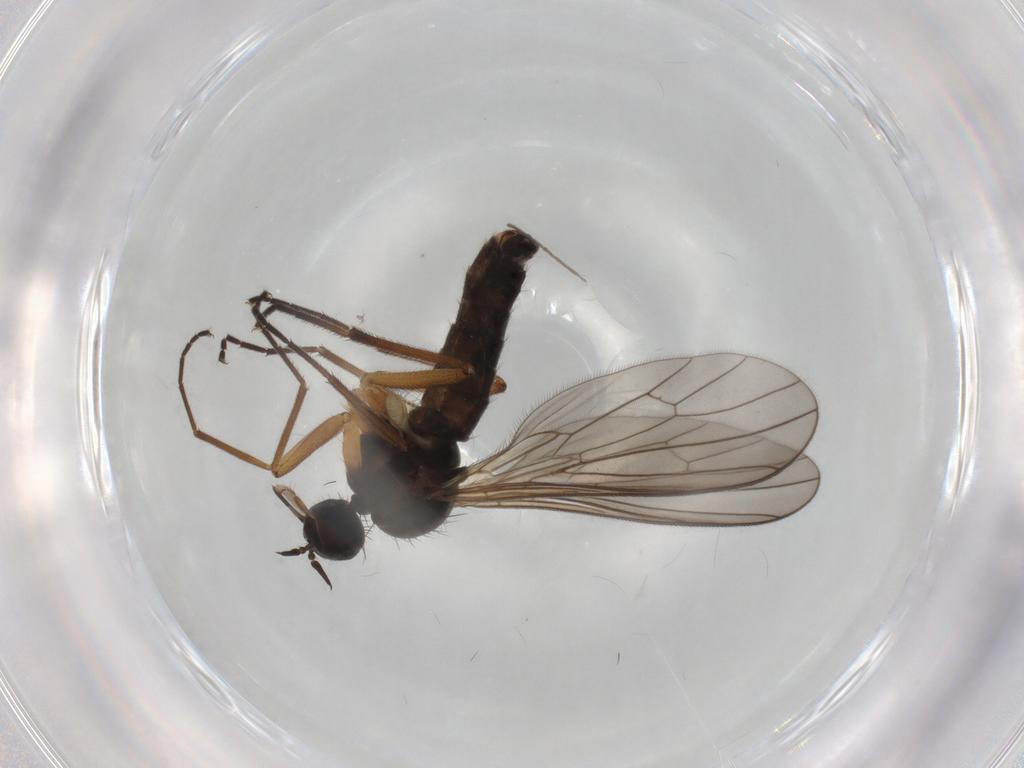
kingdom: Animalia
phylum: Arthropoda
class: Insecta
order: Diptera
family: Empididae
